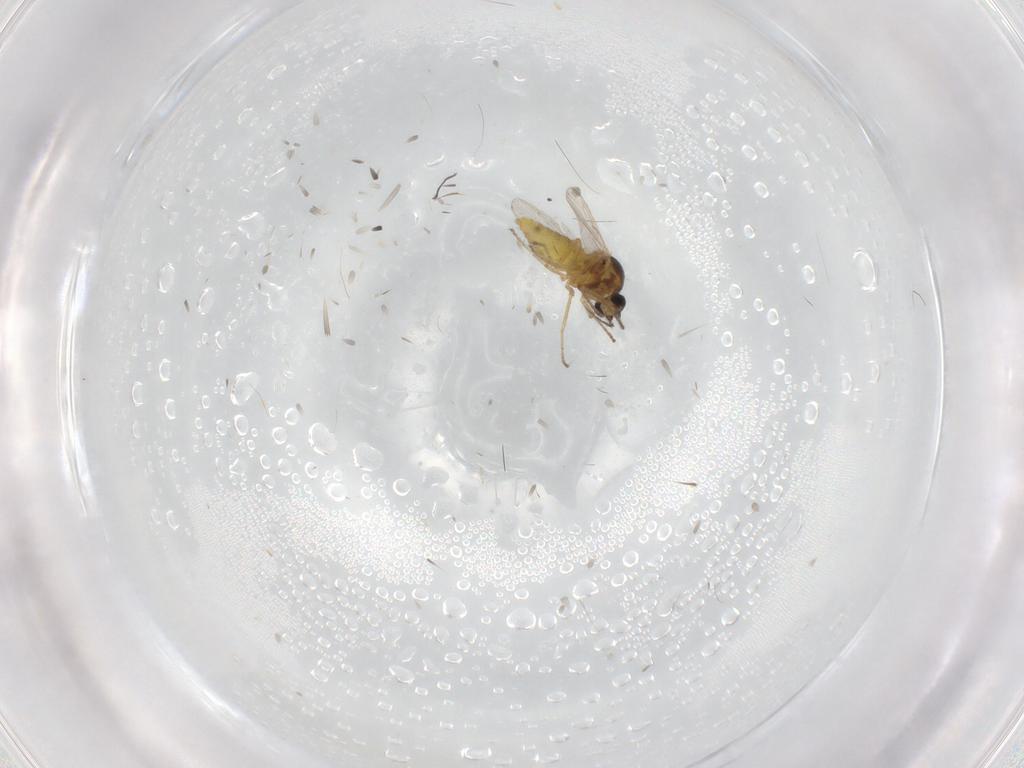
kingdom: Animalia
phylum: Arthropoda
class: Insecta
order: Diptera
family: Ceratopogonidae
